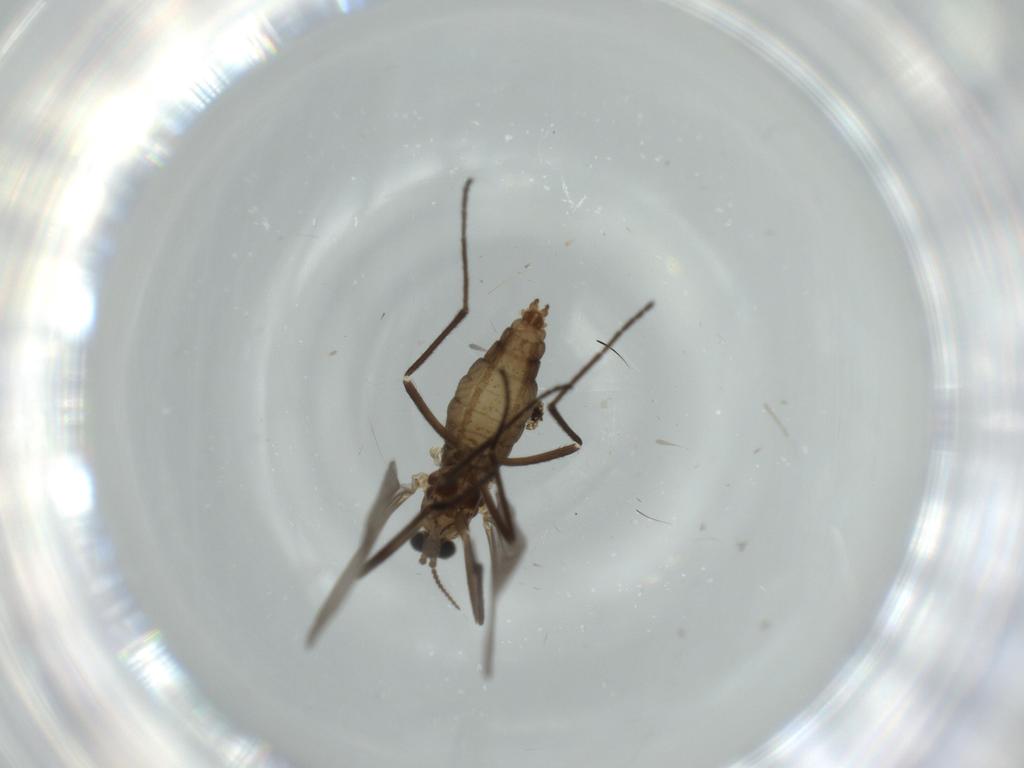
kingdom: Animalia
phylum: Arthropoda
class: Insecta
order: Diptera
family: Cecidomyiidae
